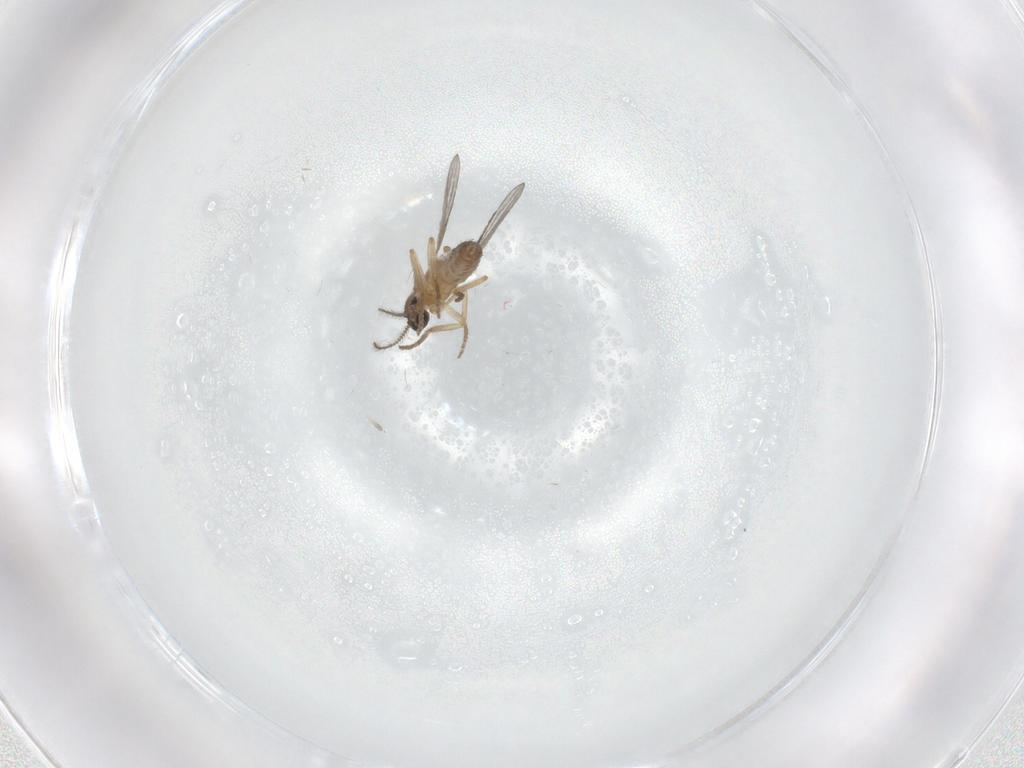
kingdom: Animalia
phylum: Arthropoda
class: Insecta
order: Diptera
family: Ceratopogonidae
